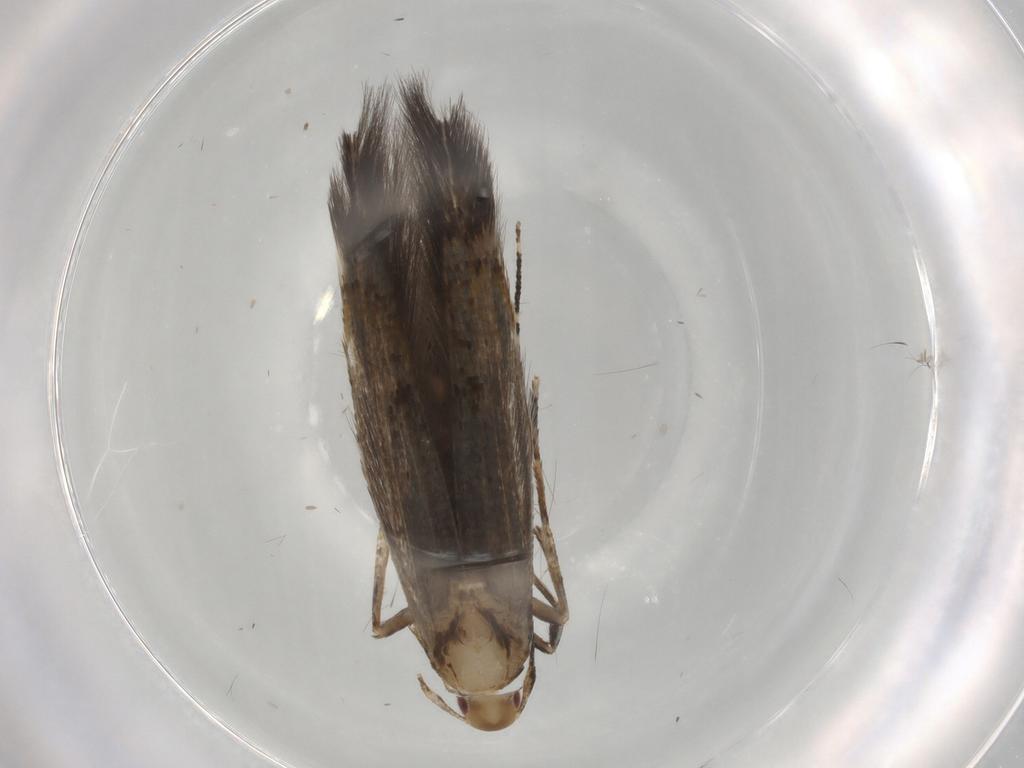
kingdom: Animalia
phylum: Arthropoda
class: Insecta
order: Lepidoptera
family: Cosmopterigidae
